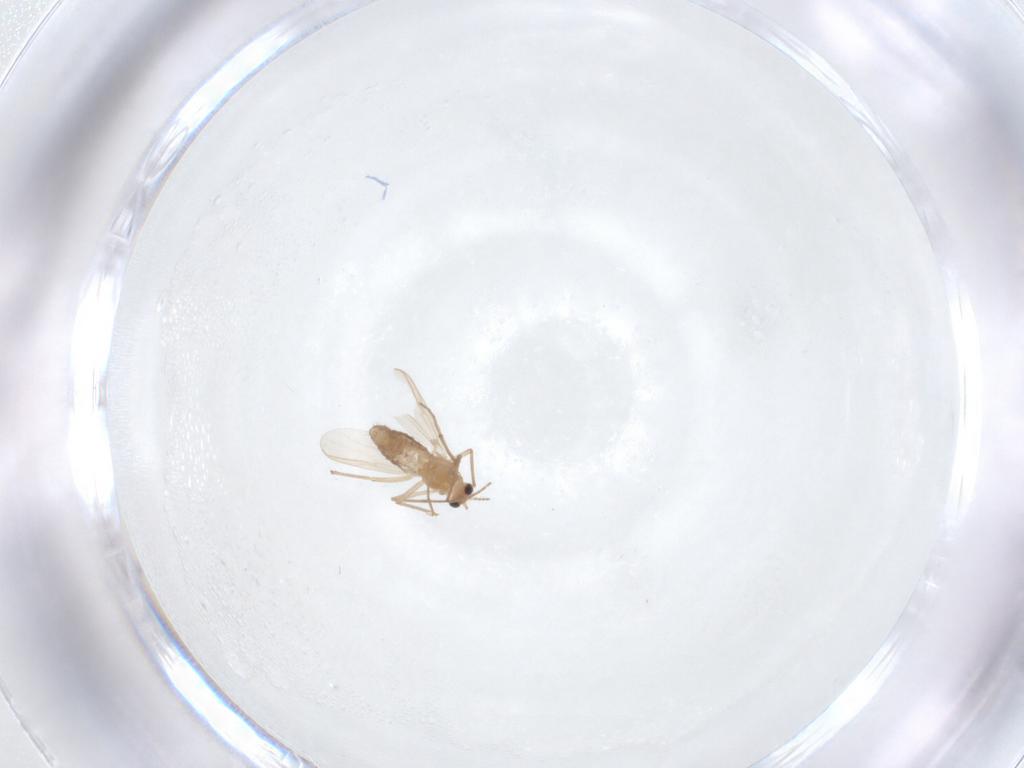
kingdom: Animalia
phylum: Arthropoda
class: Insecta
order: Diptera
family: Chironomidae
